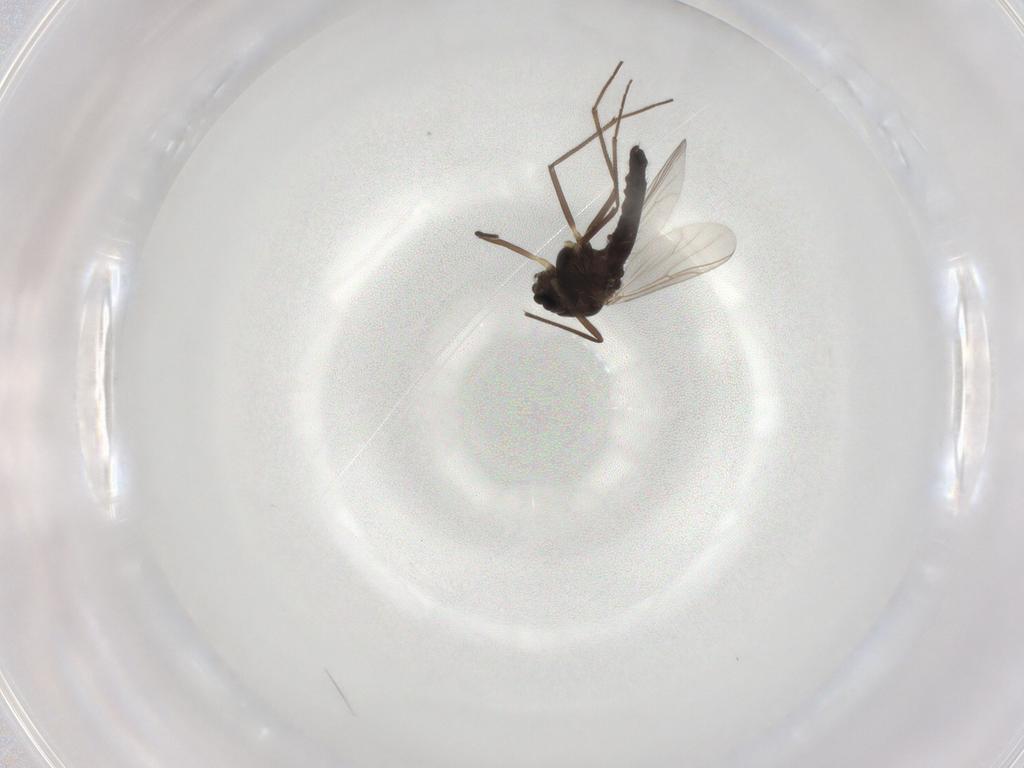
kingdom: Animalia
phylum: Arthropoda
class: Insecta
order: Diptera
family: Chironomidae
